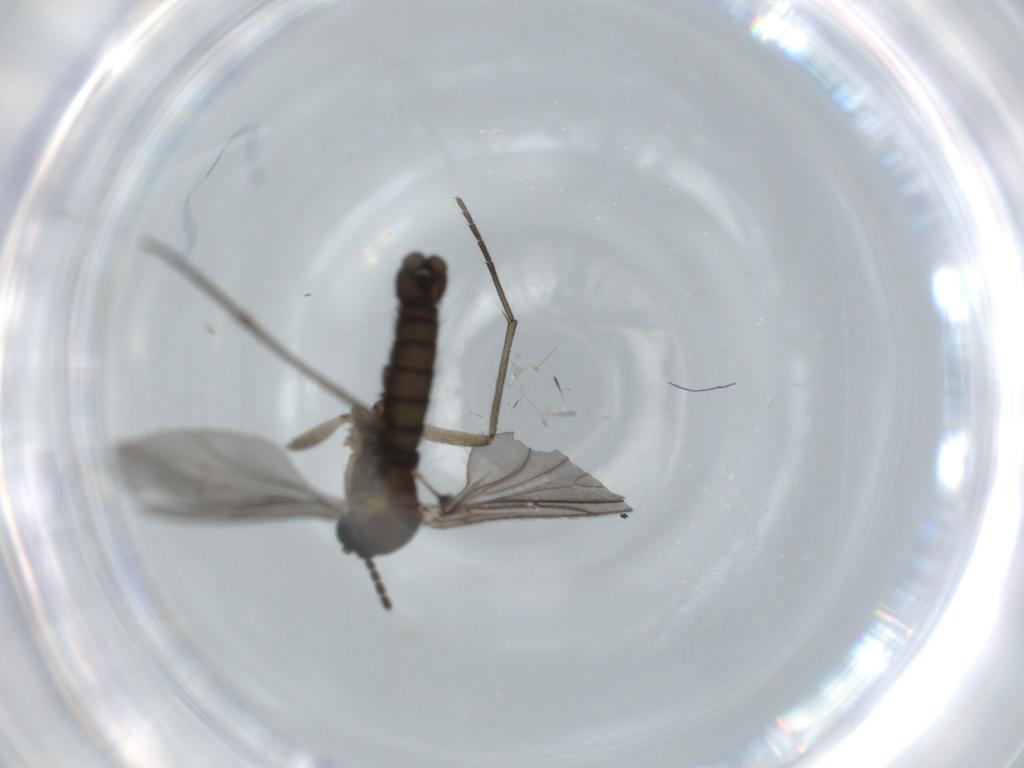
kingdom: Animalia
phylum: Arthropoda
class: Insecta
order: Diptera
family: Sciaridae
